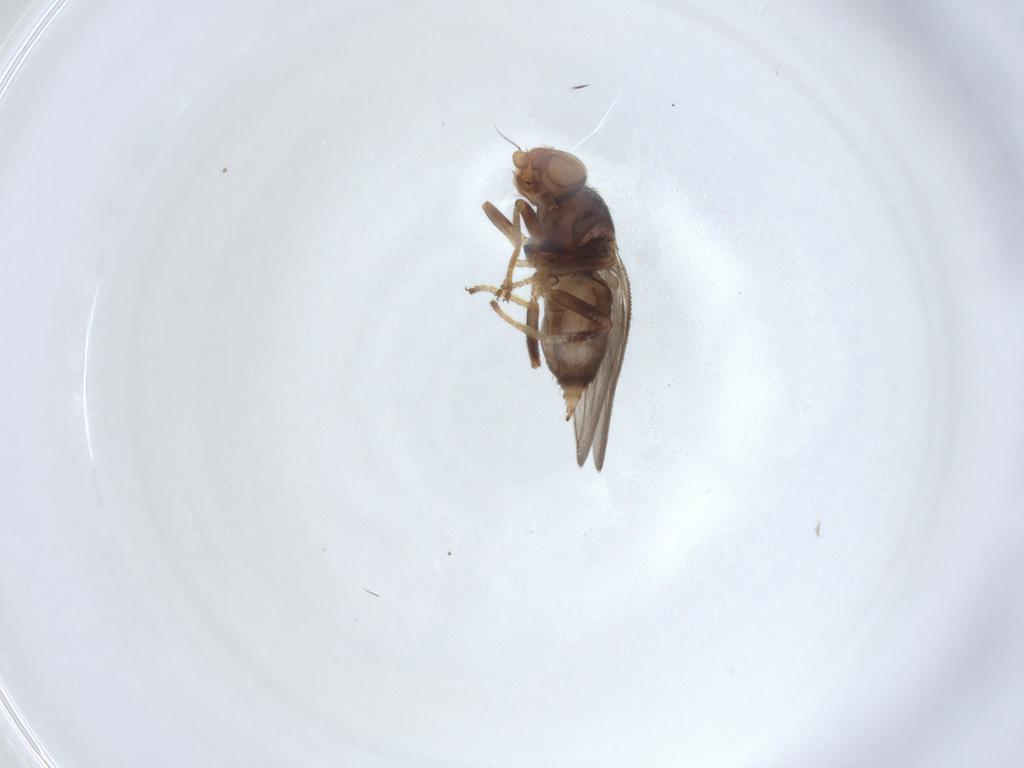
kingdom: Animalia
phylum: Arthropoda
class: Insecta
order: Diptera
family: Chloropidae
